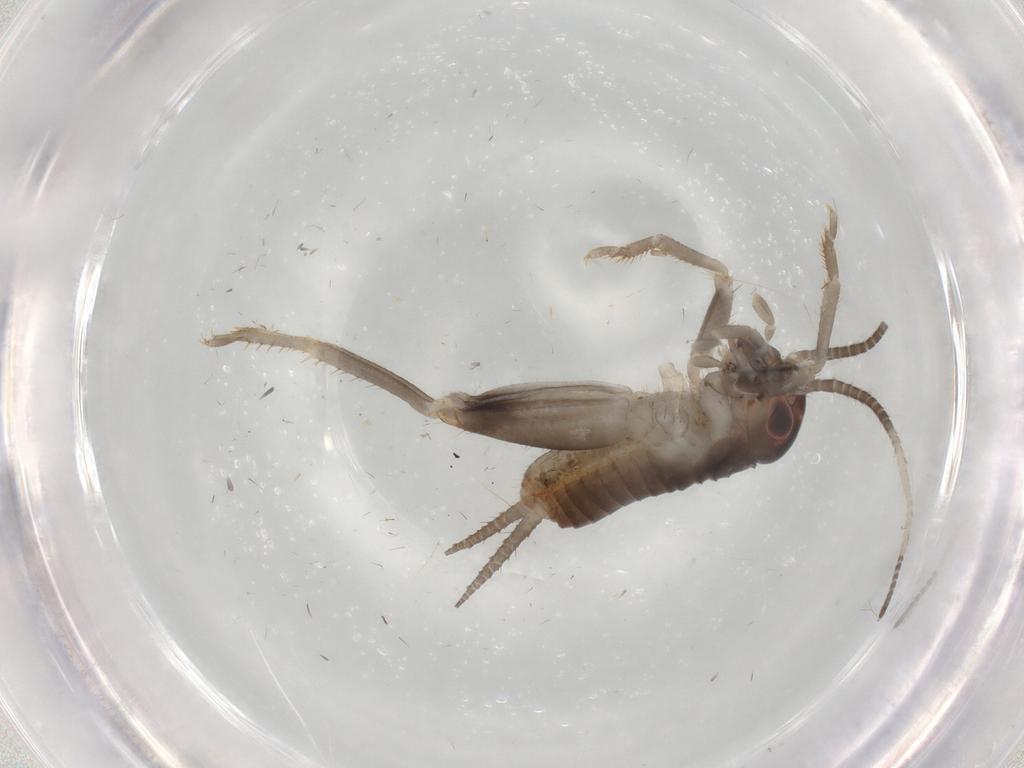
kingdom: Animalia
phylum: Arthropoda
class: Insecta
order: Orthoptera
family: Gryllidae
